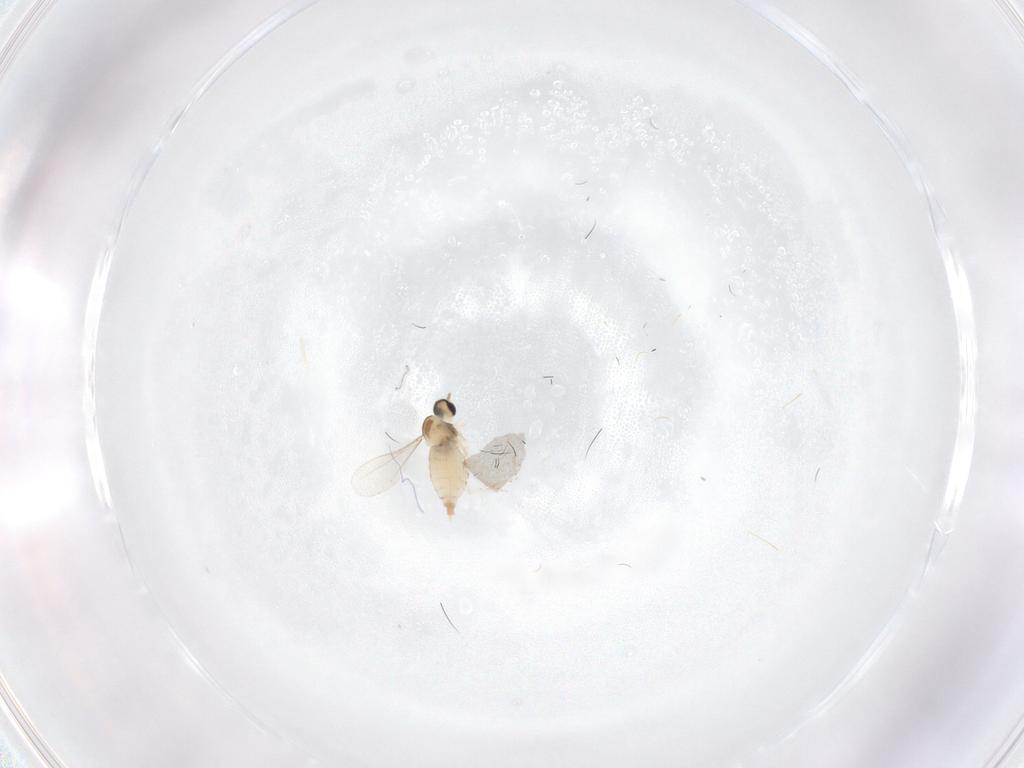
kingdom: Animalia
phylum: Arthropoda
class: Insecta
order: Diptera
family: Cecidomyiidae
